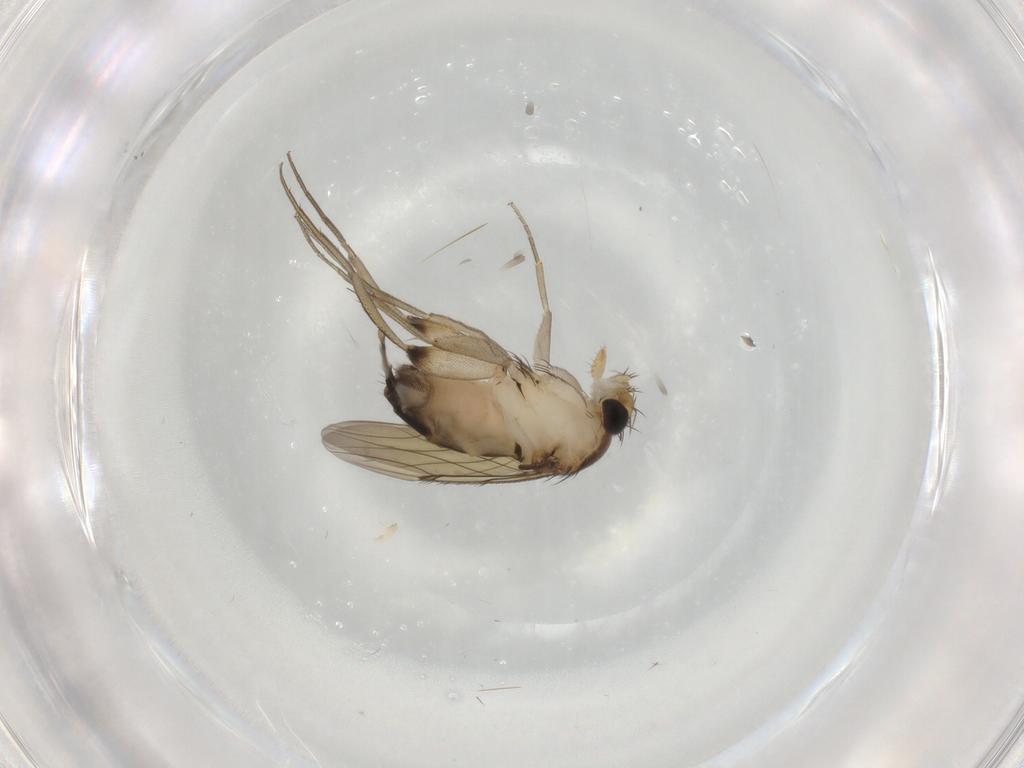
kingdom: Animalia
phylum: Arthropoda
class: Insecta
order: Diptera
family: Phoridae
